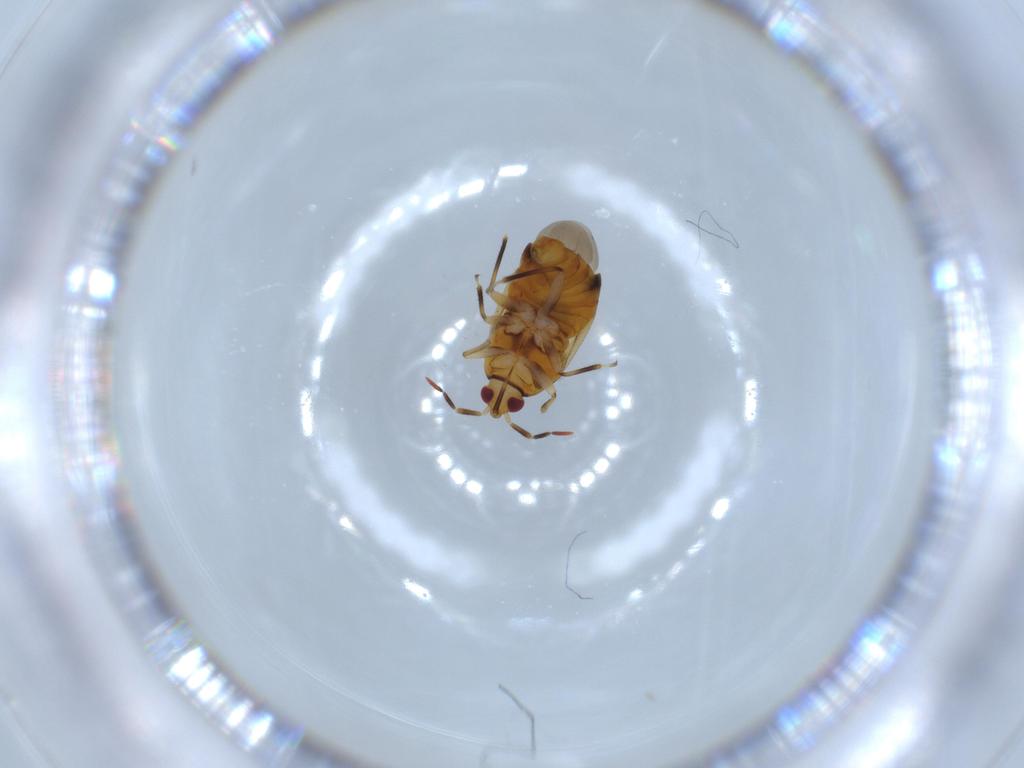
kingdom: Animalia
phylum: Arthropoda
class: Insecta
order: Hemiptera
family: Anthocoridae
